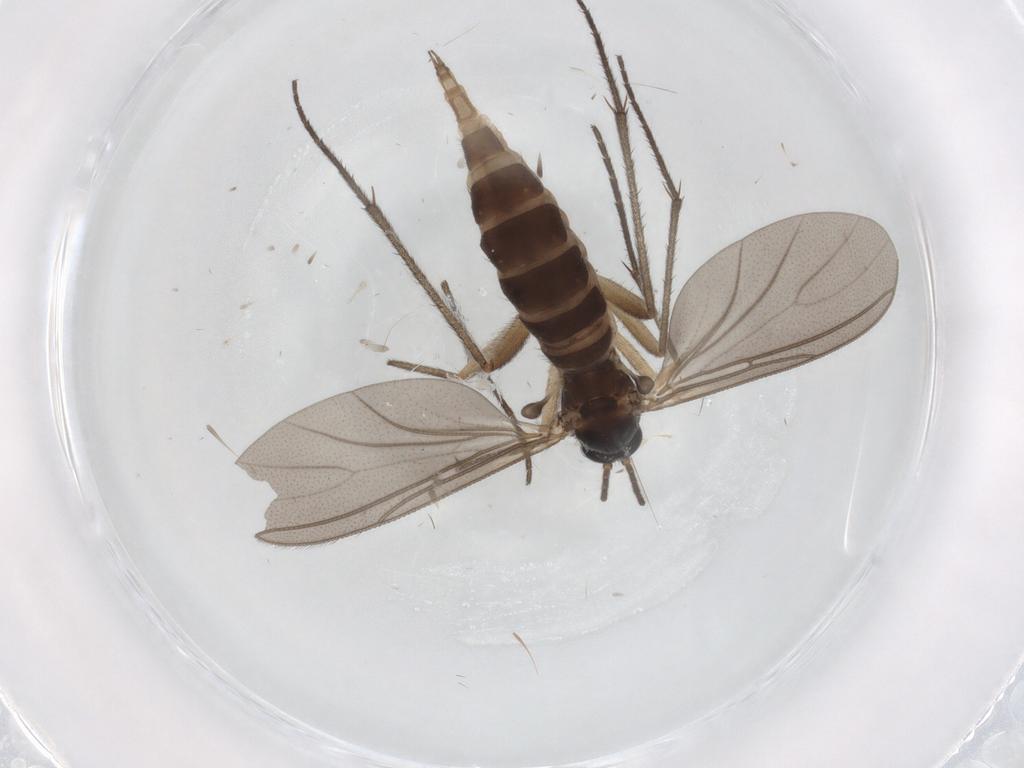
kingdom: Animalia
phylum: Arthropoda
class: Insecta
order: Diptera
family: Sciaridae
